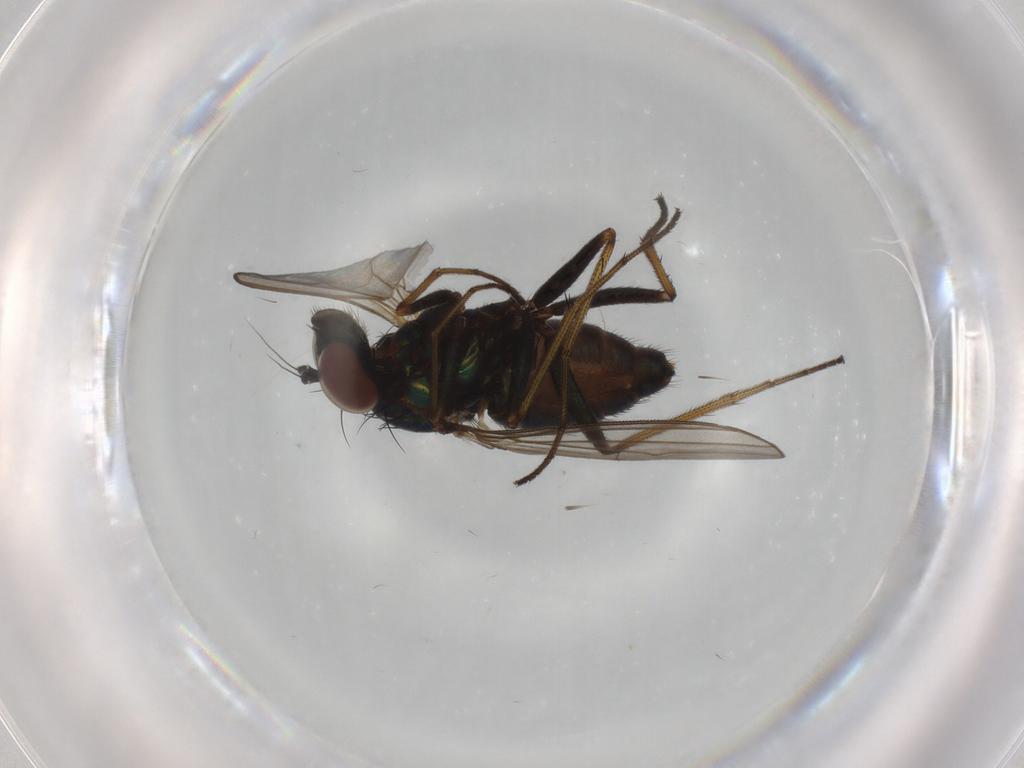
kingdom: Animalia
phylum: Arthropoda
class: Insecta
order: Diptera
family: Dolichopodidae
